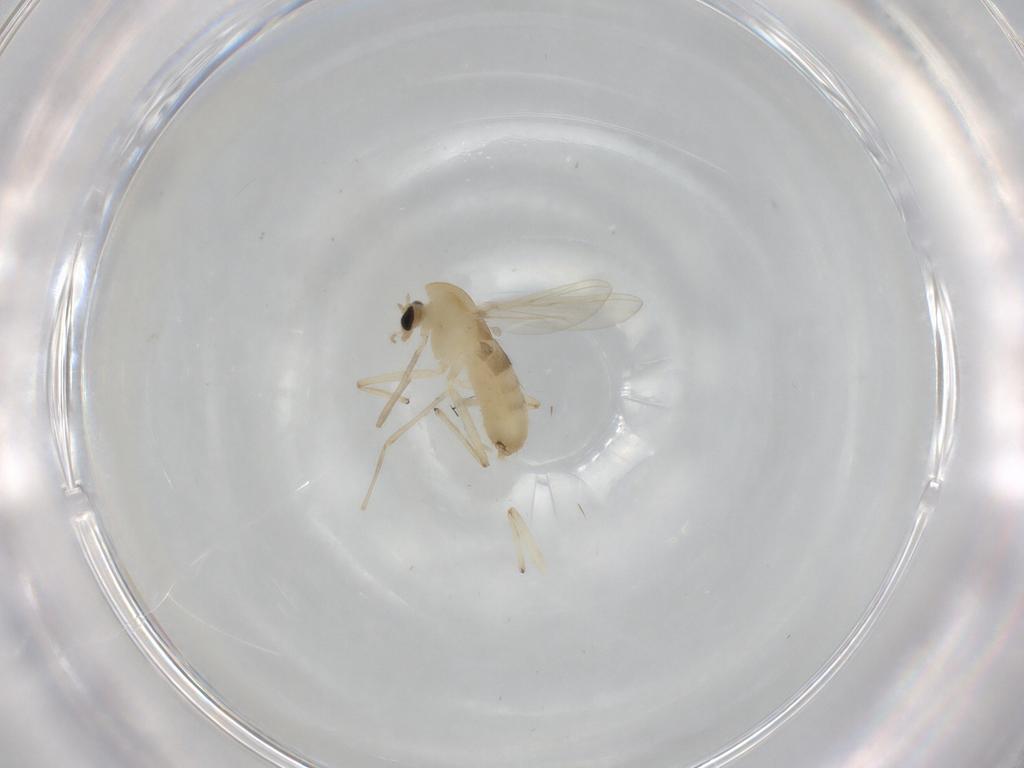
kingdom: Animalia
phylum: Arthropoda
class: Insecta
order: Diptera
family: Chironomidae
